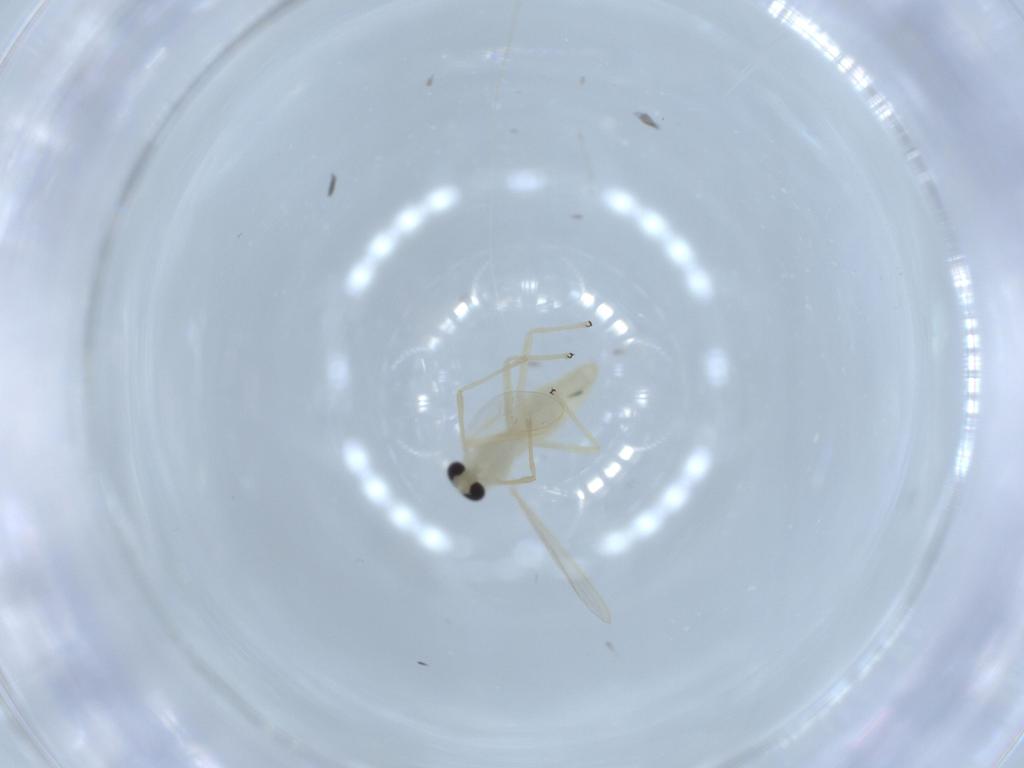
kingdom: Animalia
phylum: Arthropoda
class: Insecta
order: Diptera
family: Chironomidae
